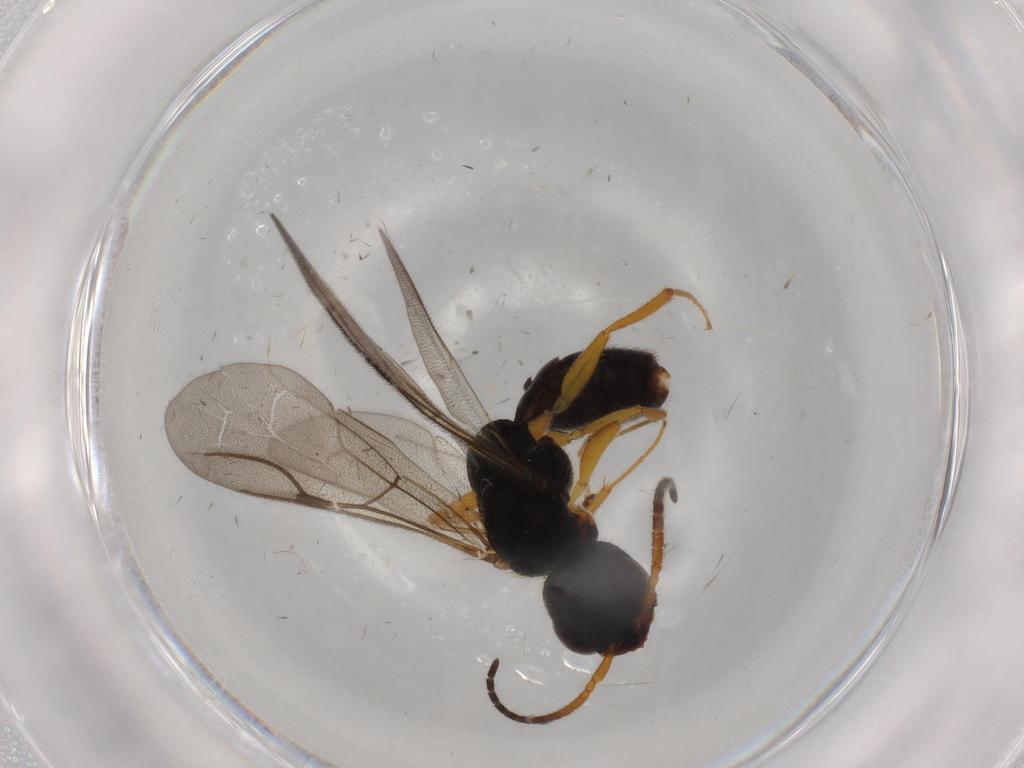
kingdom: Animalia
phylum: Arthropoda
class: Insecta
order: Hymenoptera
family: Bethylidae
